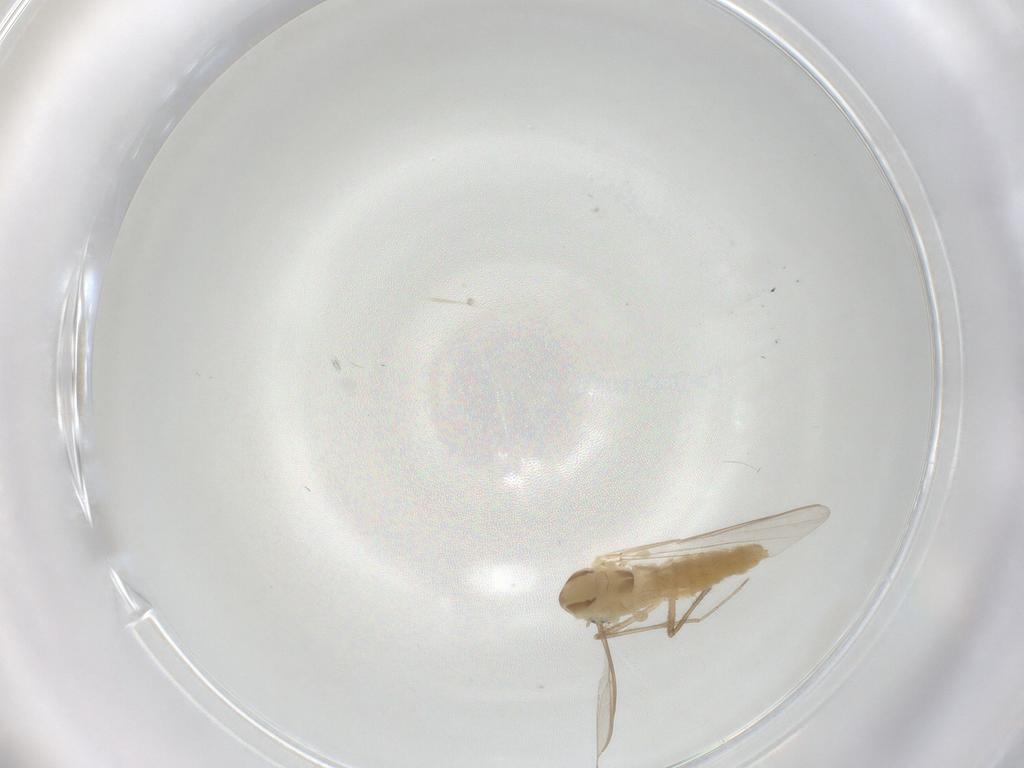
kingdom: Animalia
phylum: Arthropoda
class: Insecta
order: Diptera
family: Chironomidae
